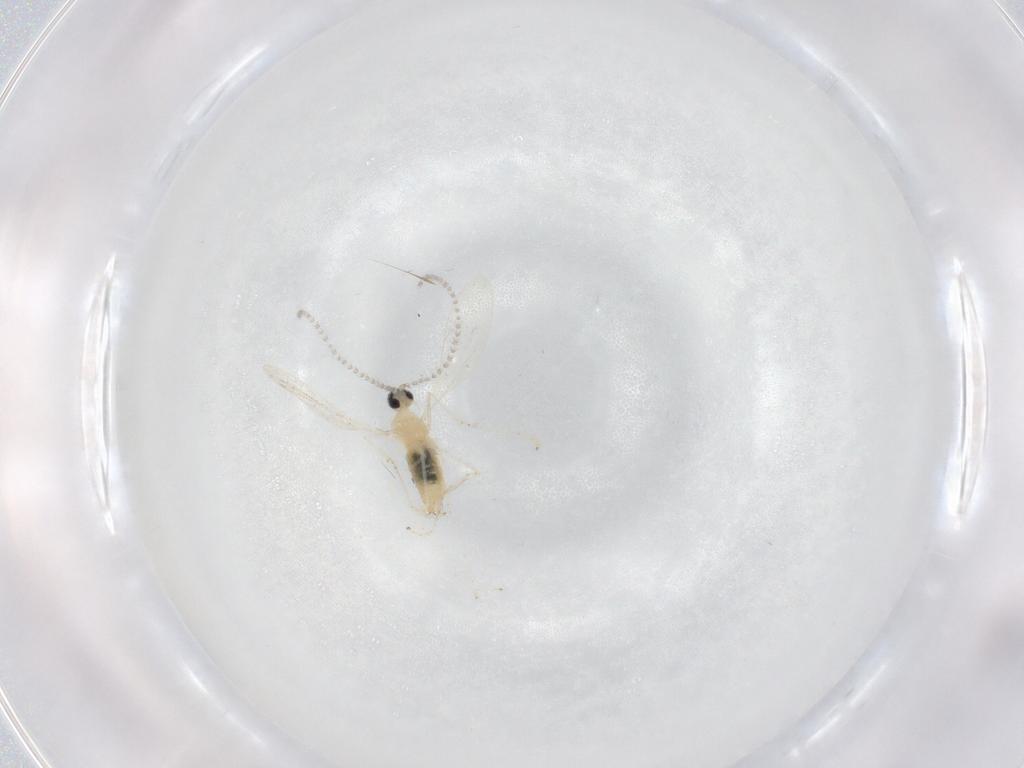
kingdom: Animalia
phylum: Arthropoda
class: Insecta
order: Diptera
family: Cecidomyiidae
